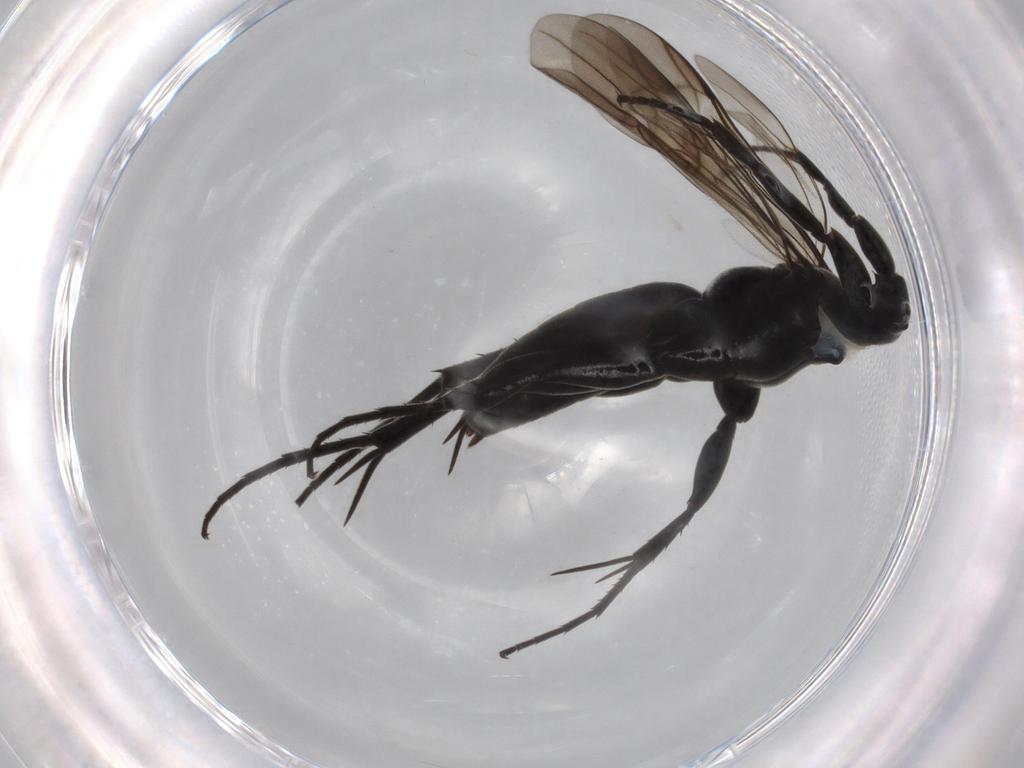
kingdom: Animalia
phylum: Arthropoda
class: Insecta
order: Hymenoptera
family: Pompilidae
